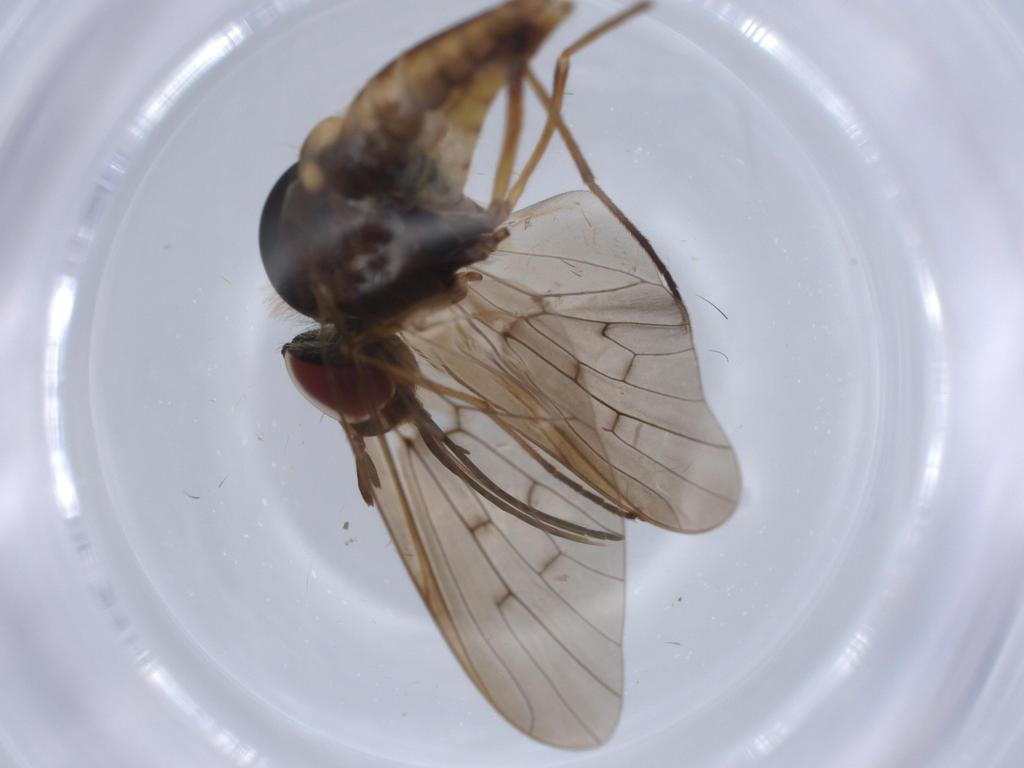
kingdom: Animalia
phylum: Arthropoda
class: Insecta
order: Diptera
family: Bombyliidae
